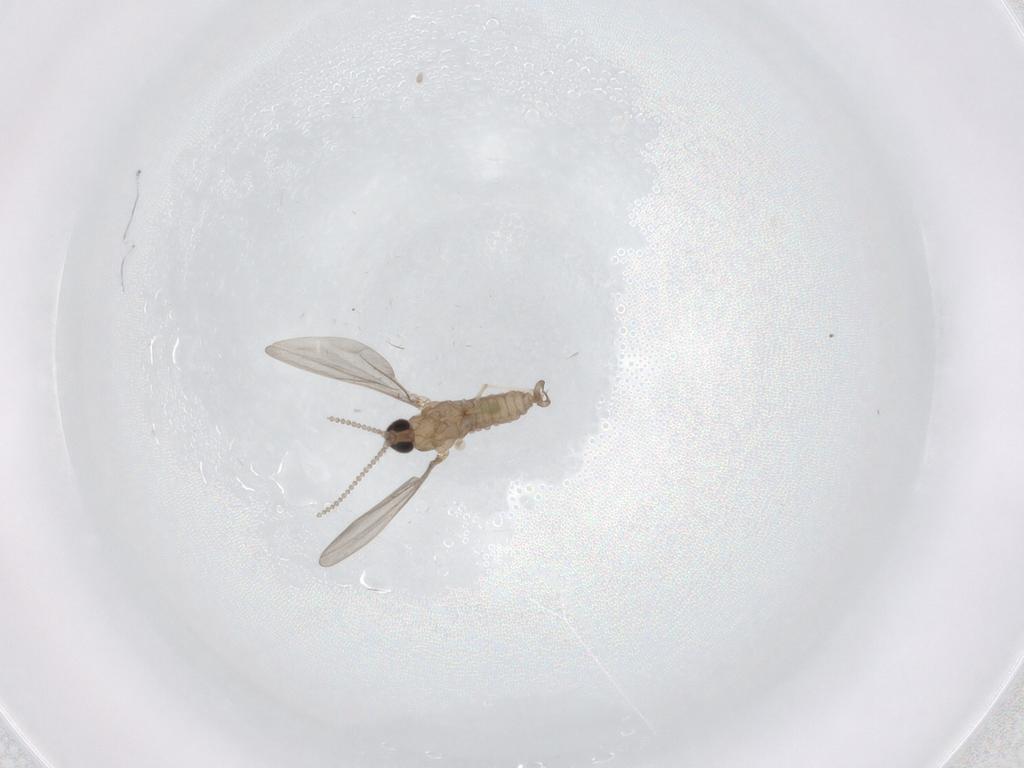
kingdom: Animalia
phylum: Arthropoda
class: Insecta
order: Diptera
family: Cecidomyiidae
